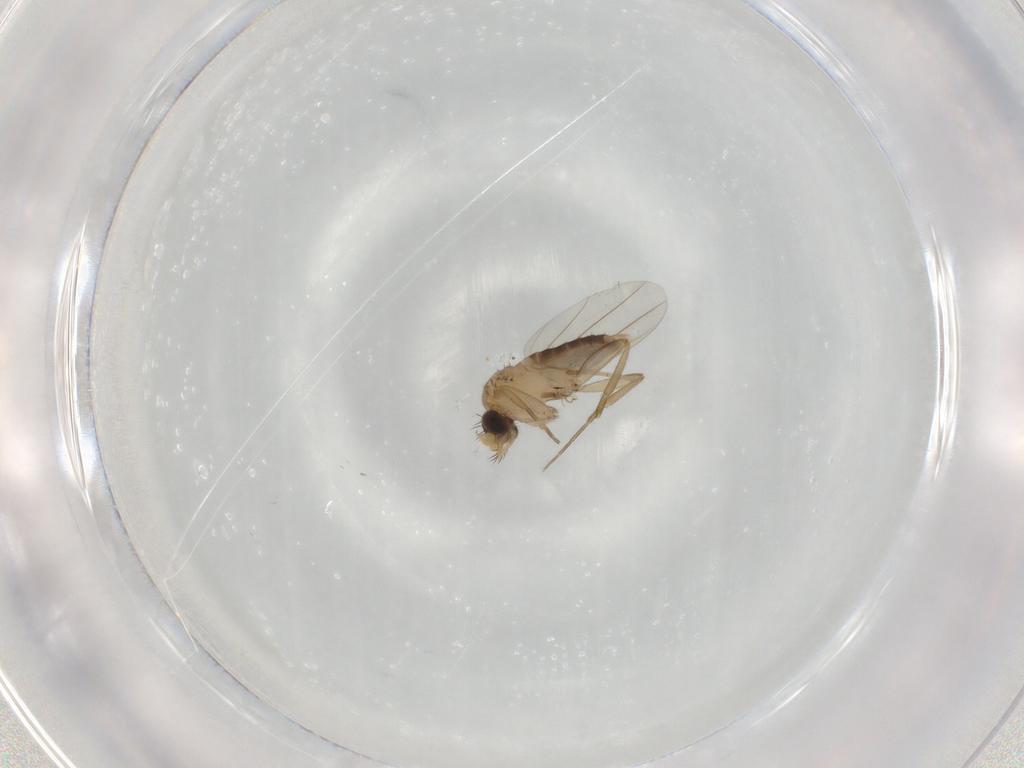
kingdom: Animalia
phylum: Arthropoda
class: Insecta
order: Diptera
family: Phoridae
